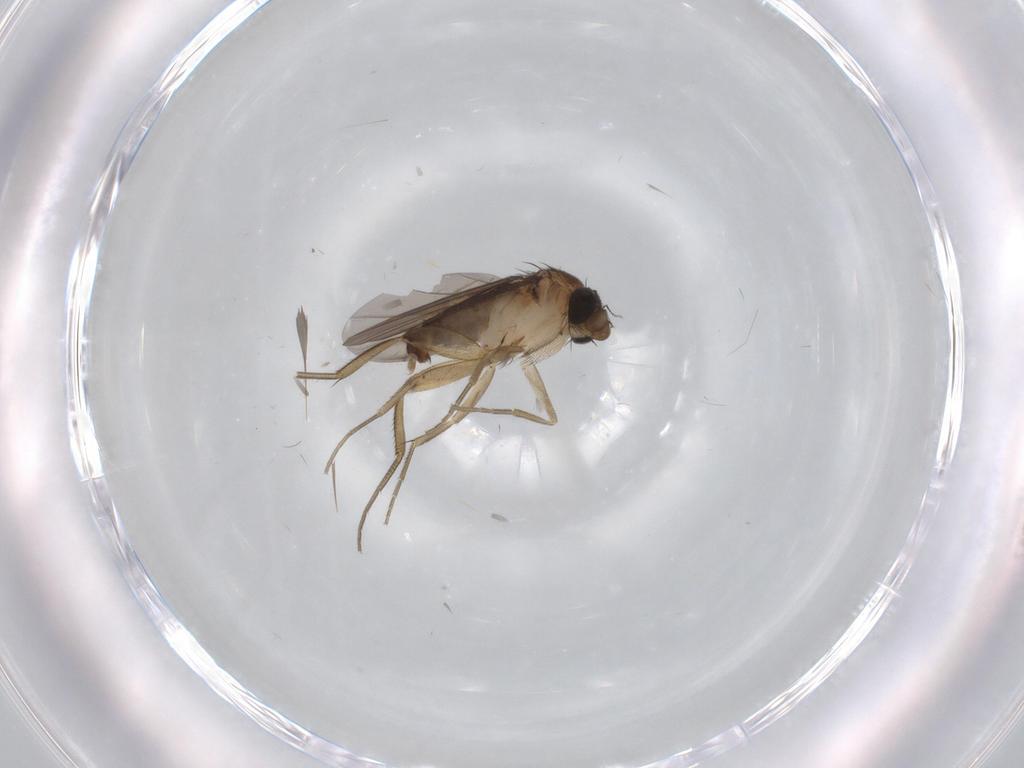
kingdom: Animalia
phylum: Arthropoda
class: Insecta
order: Diptera
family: Phoridae
